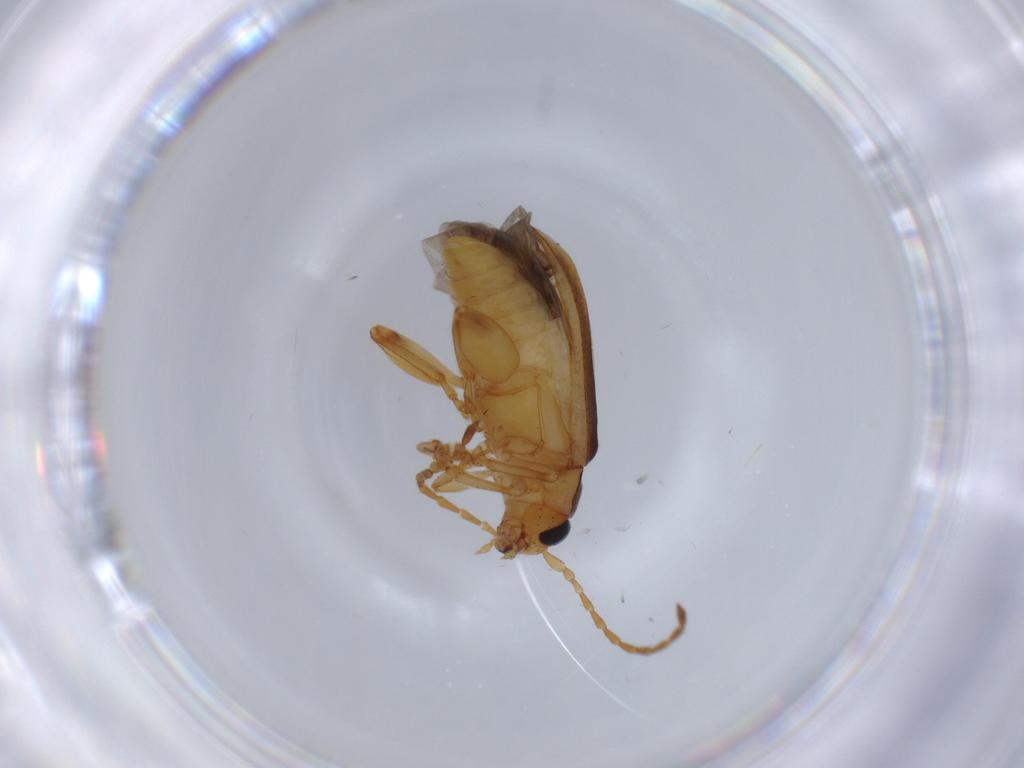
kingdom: Animalia
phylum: Arthropoda
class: Insecta
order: Coleoptera
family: Chrysomelidae
